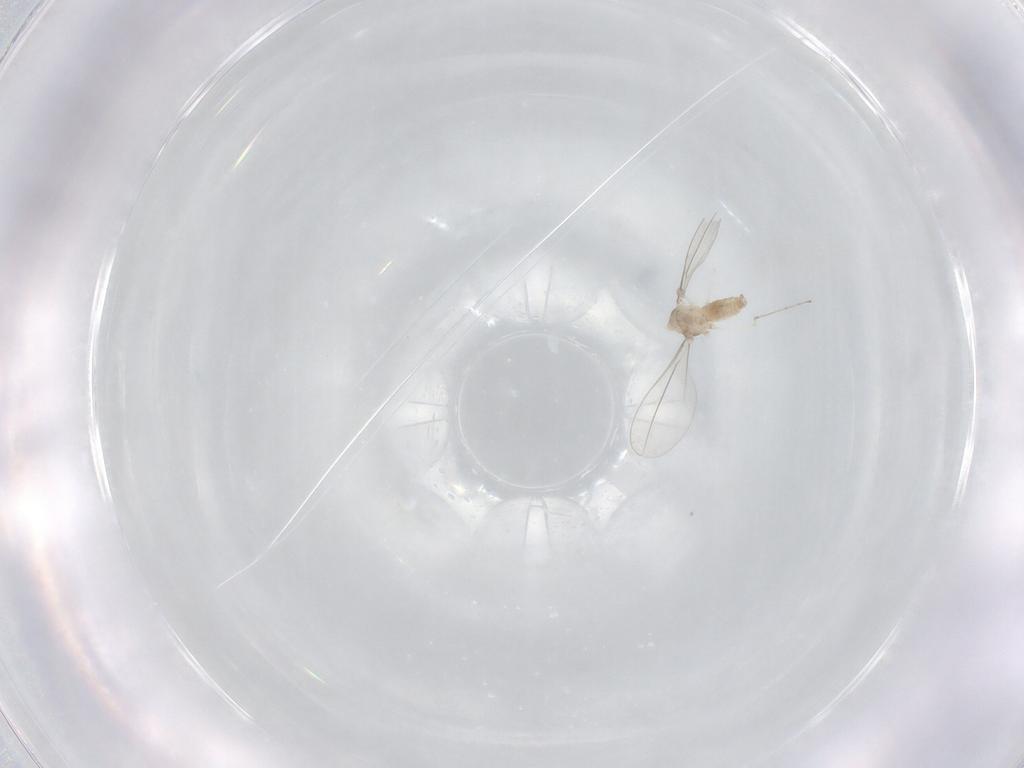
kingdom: Animalia
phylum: Arthropoda
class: Insecta
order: Diptera
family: Cecidomyiidae
